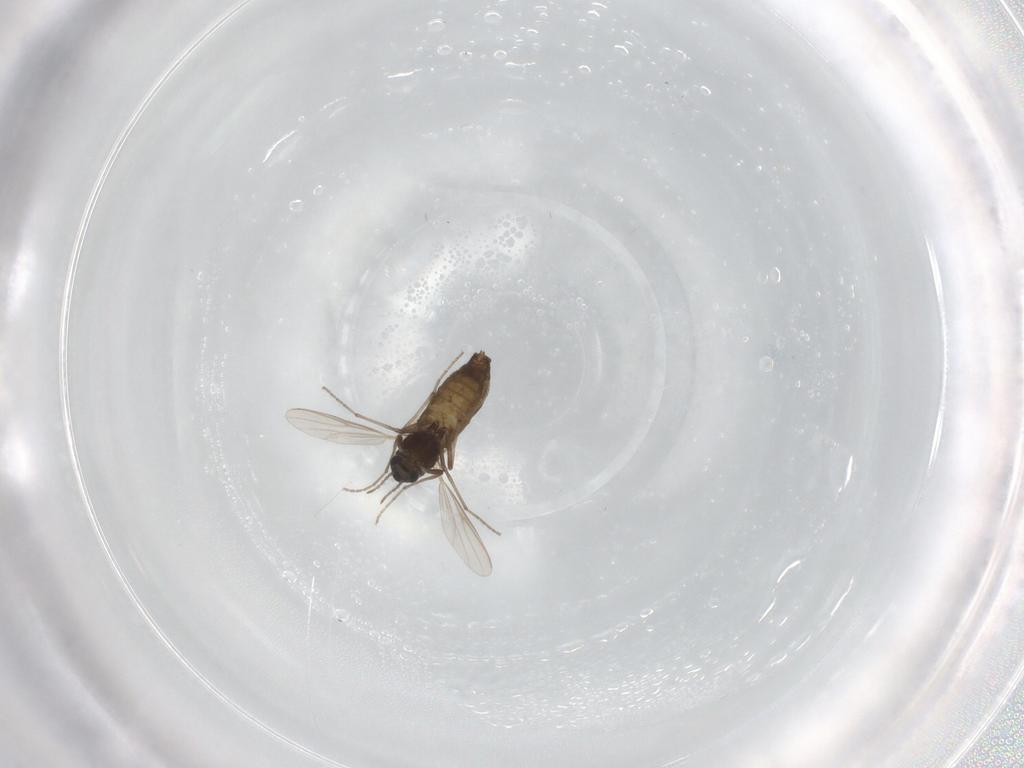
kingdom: Animalia
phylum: Arthropoda
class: Insecta
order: Diptera
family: Chironomidae
